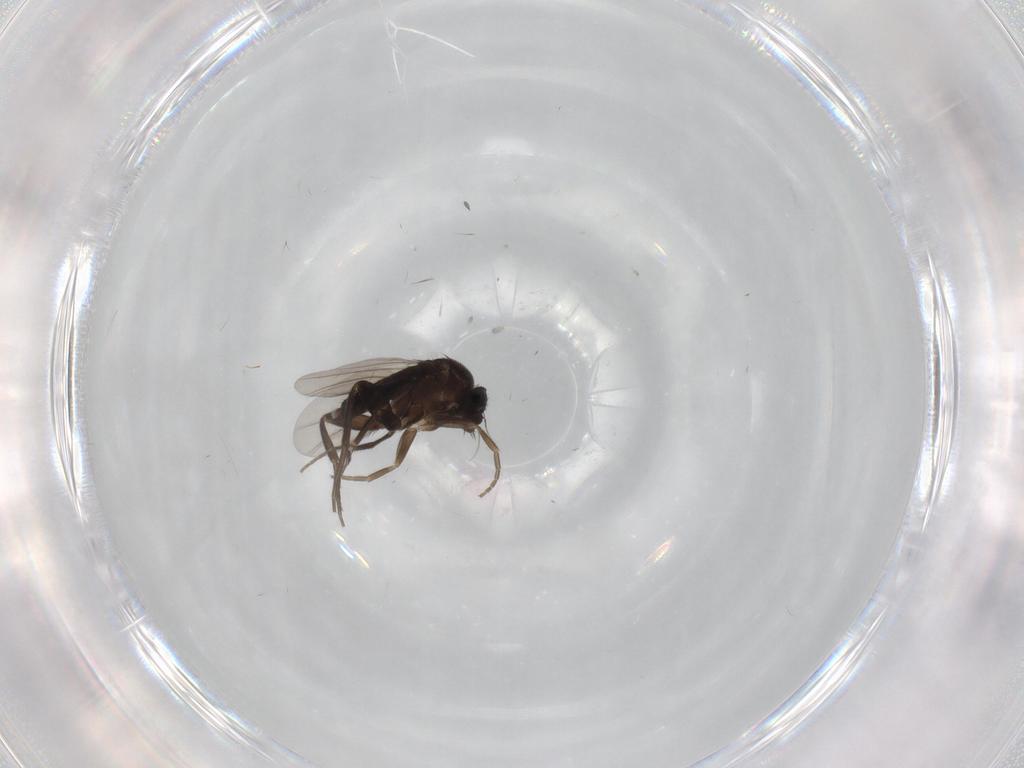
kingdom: Animalia
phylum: Arthropoda
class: Insecta
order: Diptera
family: Phoridae
